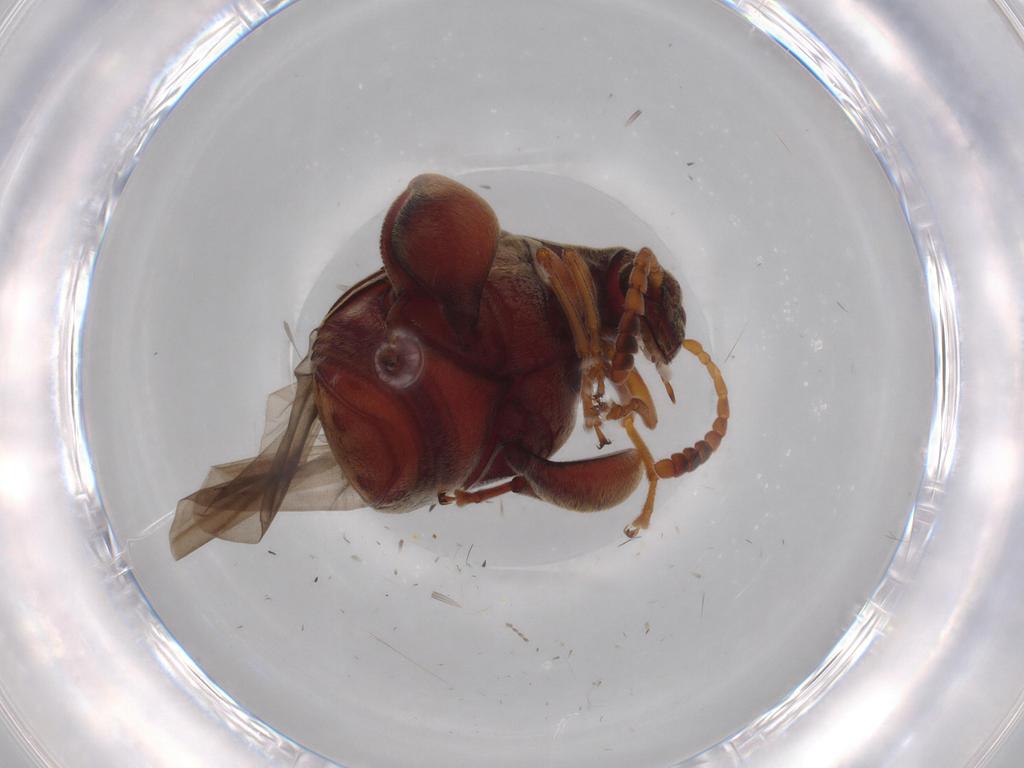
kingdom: Animalia
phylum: Arthropoda
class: Insecta
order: Coleoptera
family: Chrysomelidae
